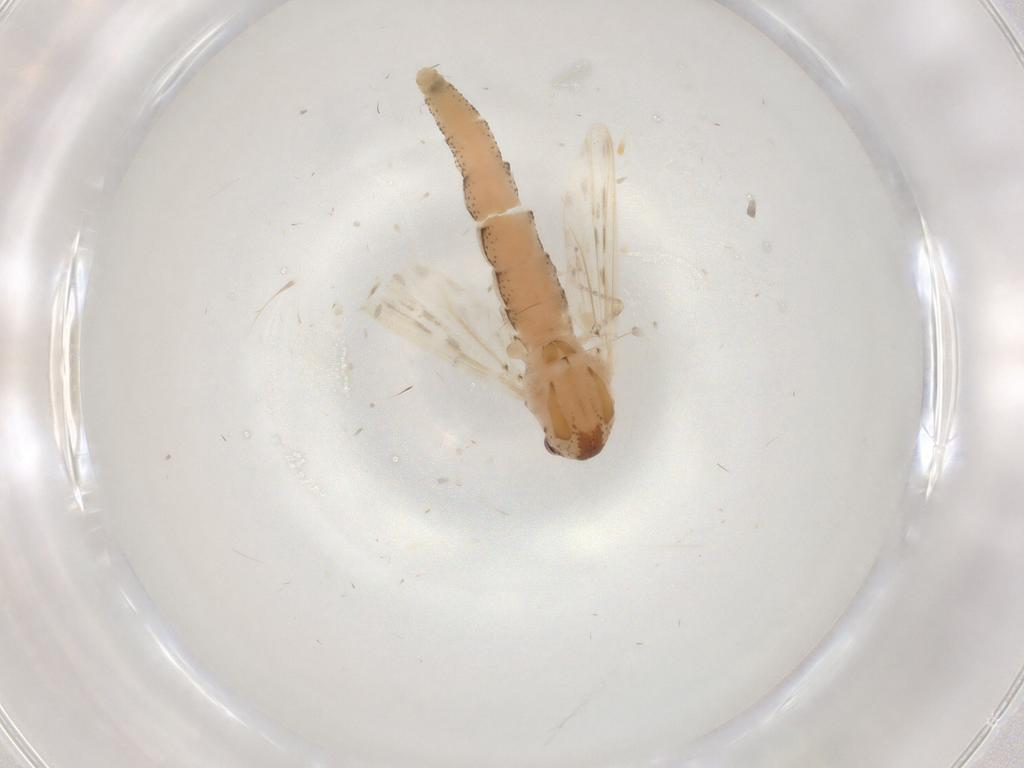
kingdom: Animalia
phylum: Arthropoda
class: Insecta
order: Diptera
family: Chaoboridae
